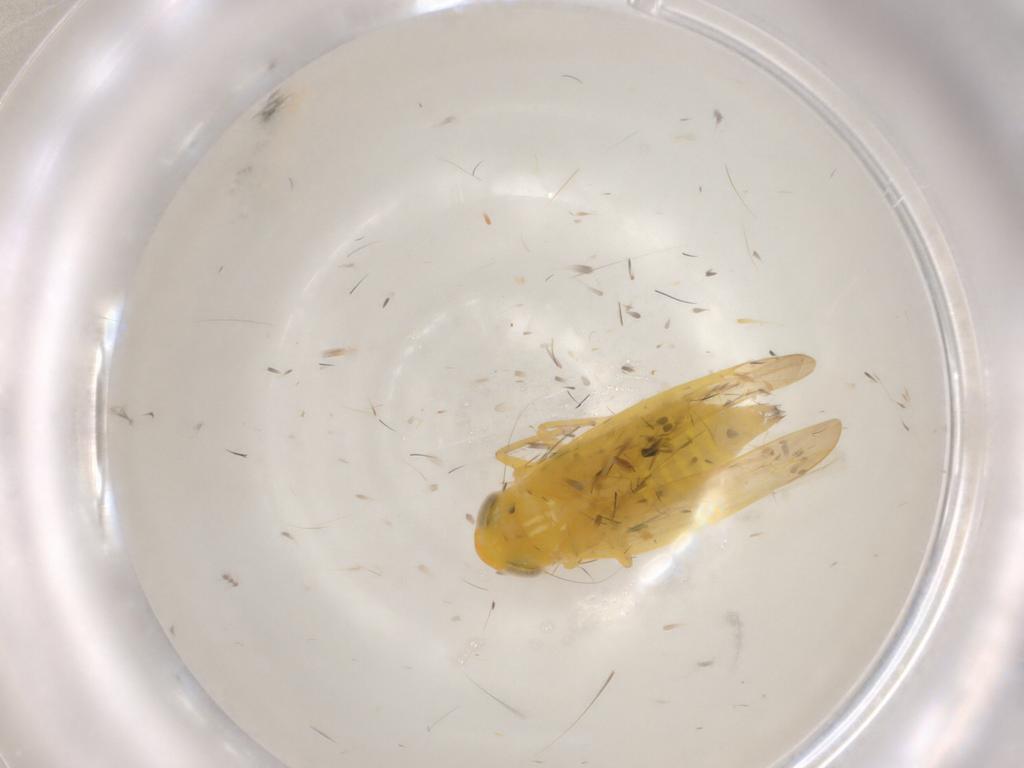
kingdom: Animalia
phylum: Arthropoda
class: Insecta
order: Hemiptera
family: Cicadellidae
